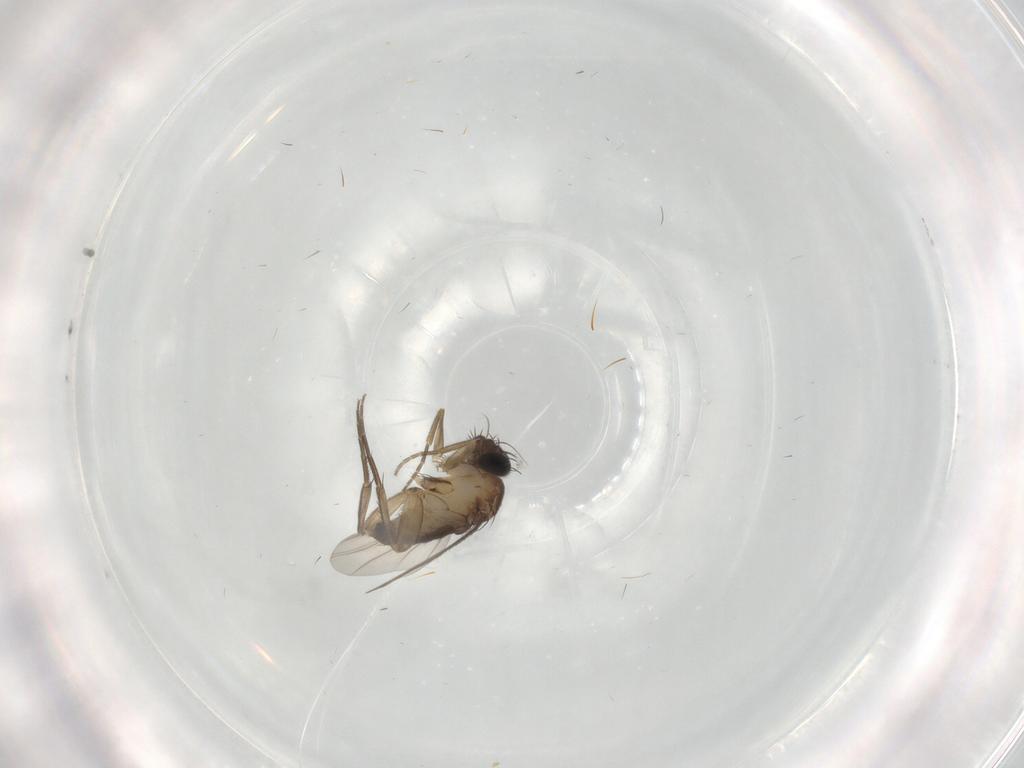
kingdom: Animalia
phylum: Arthropoda
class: Insecta
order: Diptera
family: Phoridae
